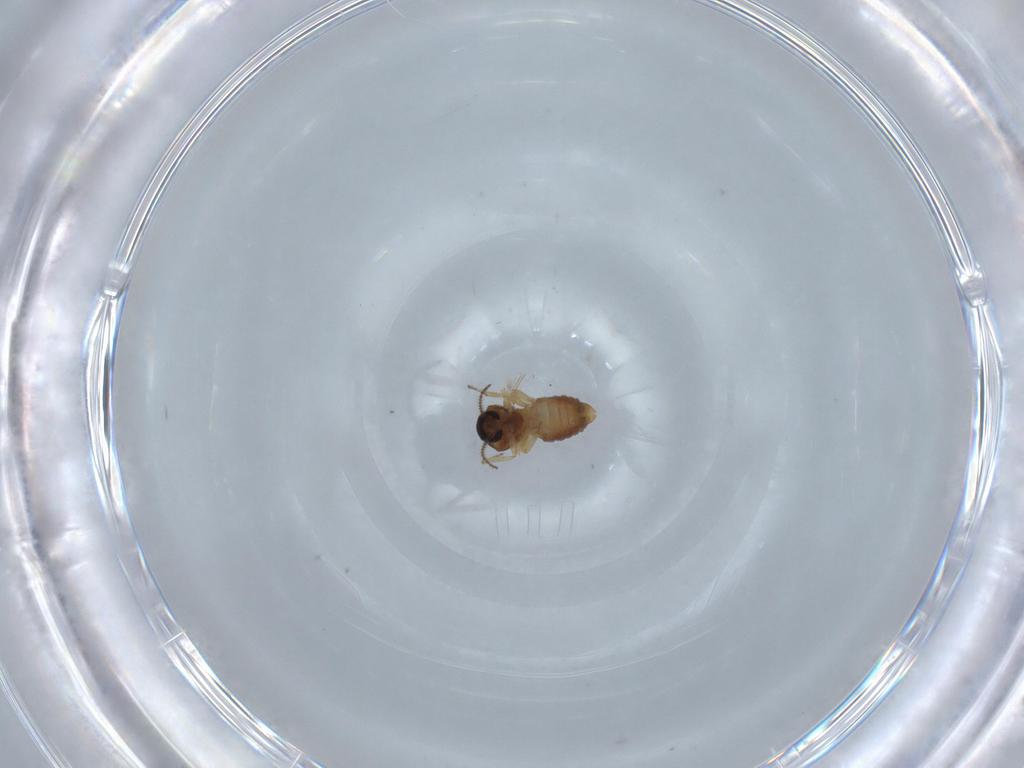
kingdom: Animalia
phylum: Arthropoda
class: Insecta
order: Diptera
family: Ceratopogonidae
